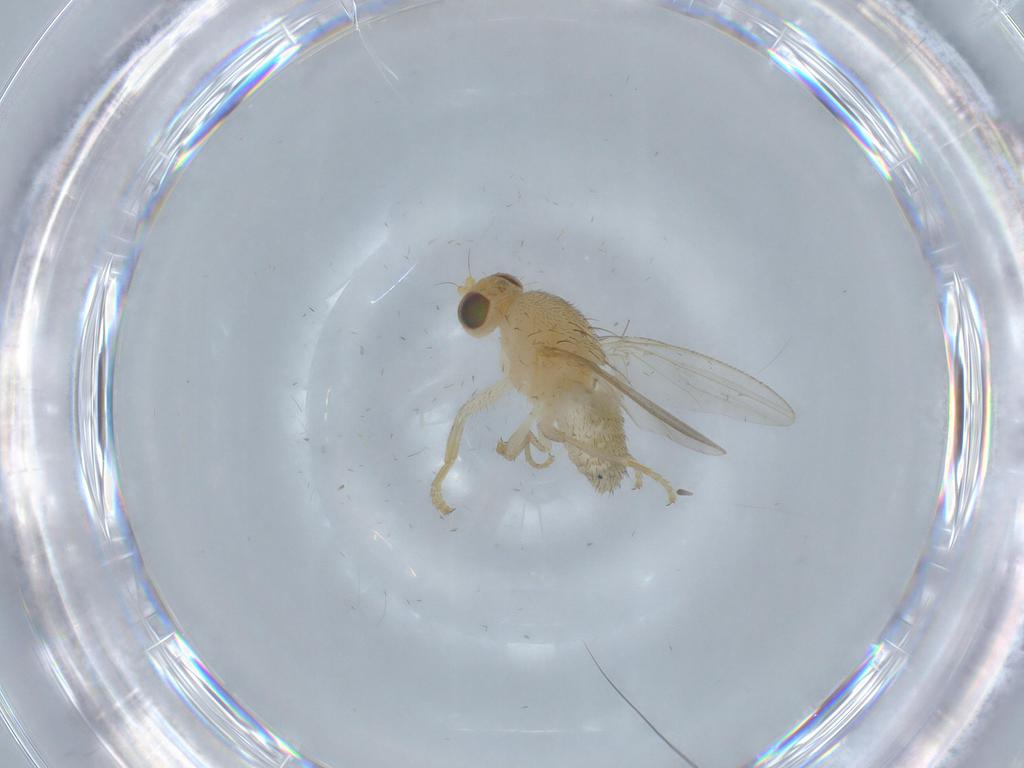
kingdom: Animalia
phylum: Arthropoda
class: Insecta
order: Diptera
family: Chyromyidae
